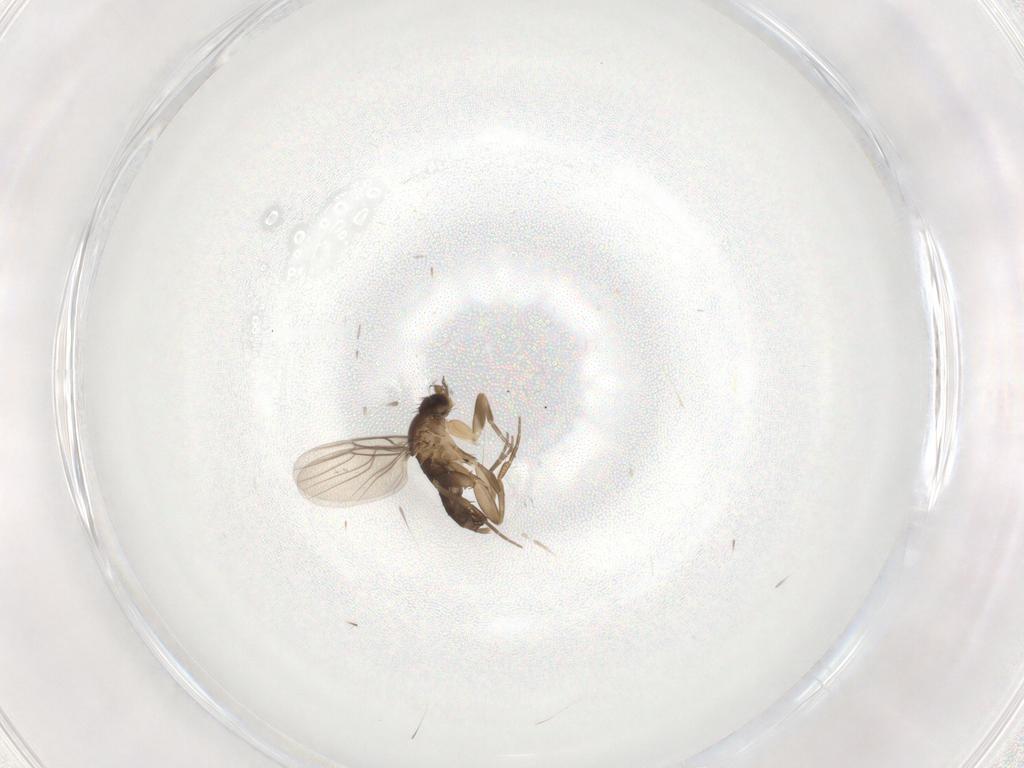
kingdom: Animalia
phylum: Arthropoda
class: Insecta
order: Diptera
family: Phoridae
